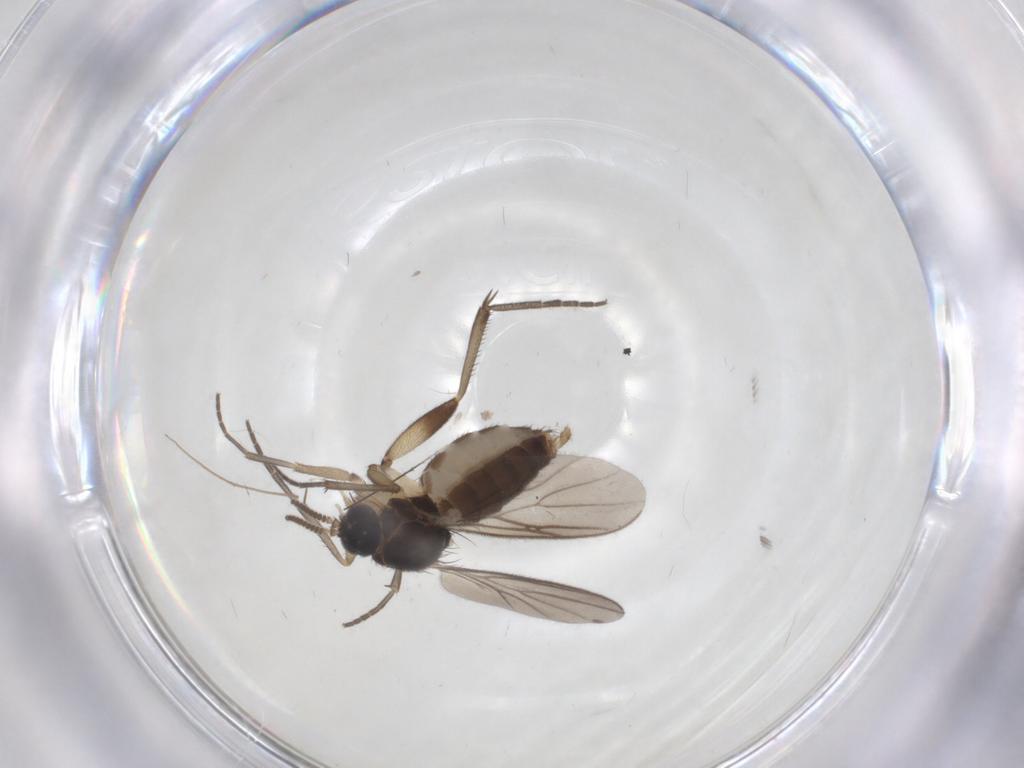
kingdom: Animalia
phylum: Arthropoda
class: Insecta
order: Diptera
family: Mycetophilidae
